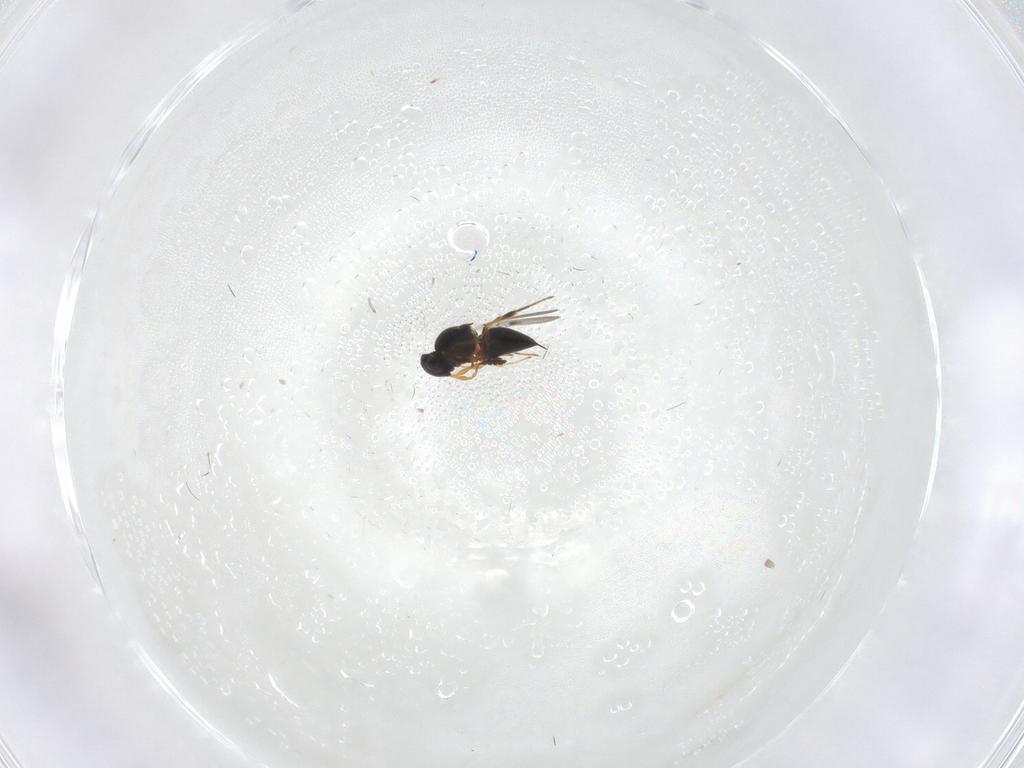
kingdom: Animalia
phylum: Arthropoda
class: Insecta
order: Hymenoptera
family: Platygastridae
